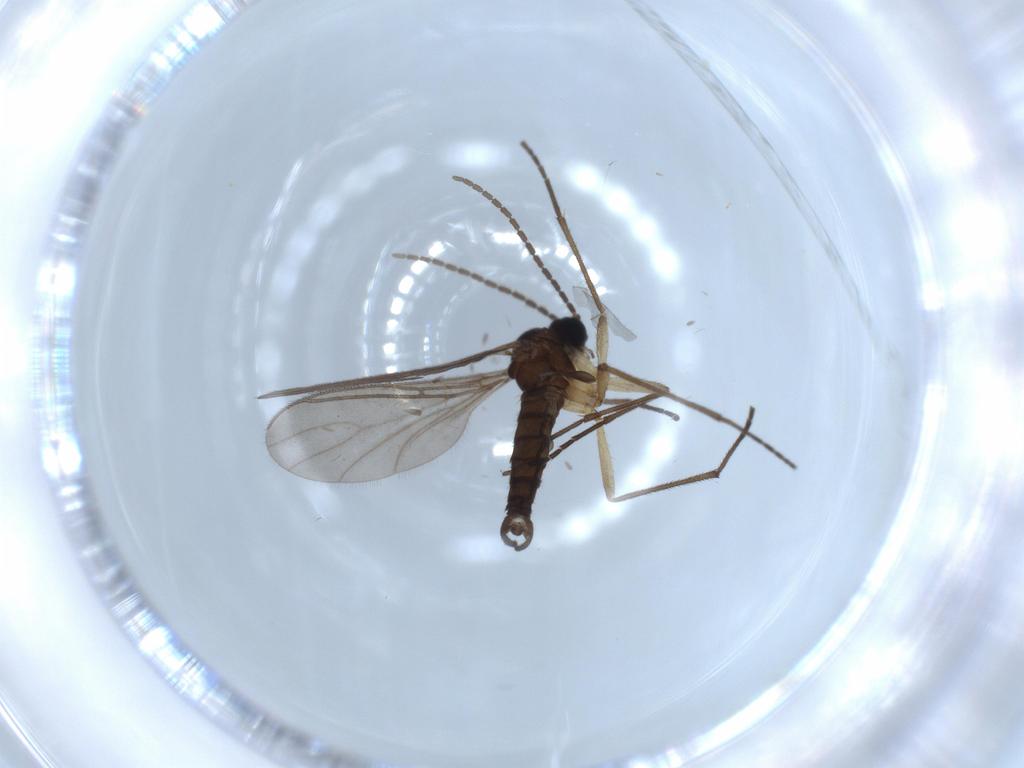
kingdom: Animalia
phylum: Arthropoda
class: Insecta
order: Diptera
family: Sciaridae
